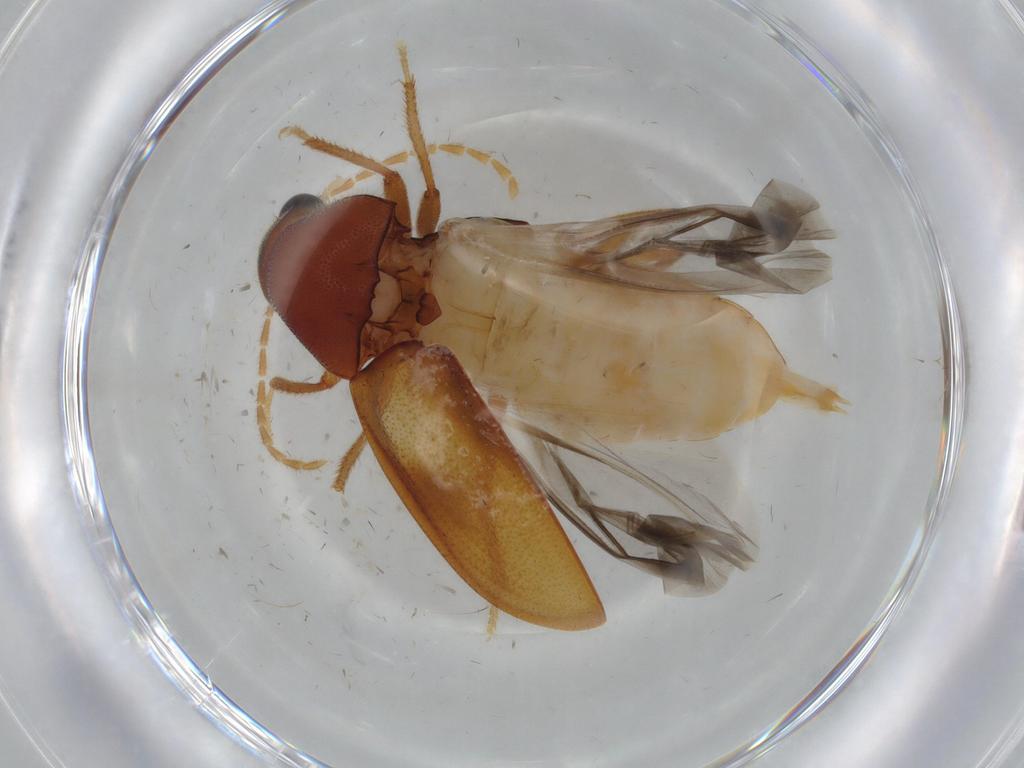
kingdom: Animalia
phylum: Arthropoda
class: Insecta
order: Coleoptera
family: Ptilodactylidae
